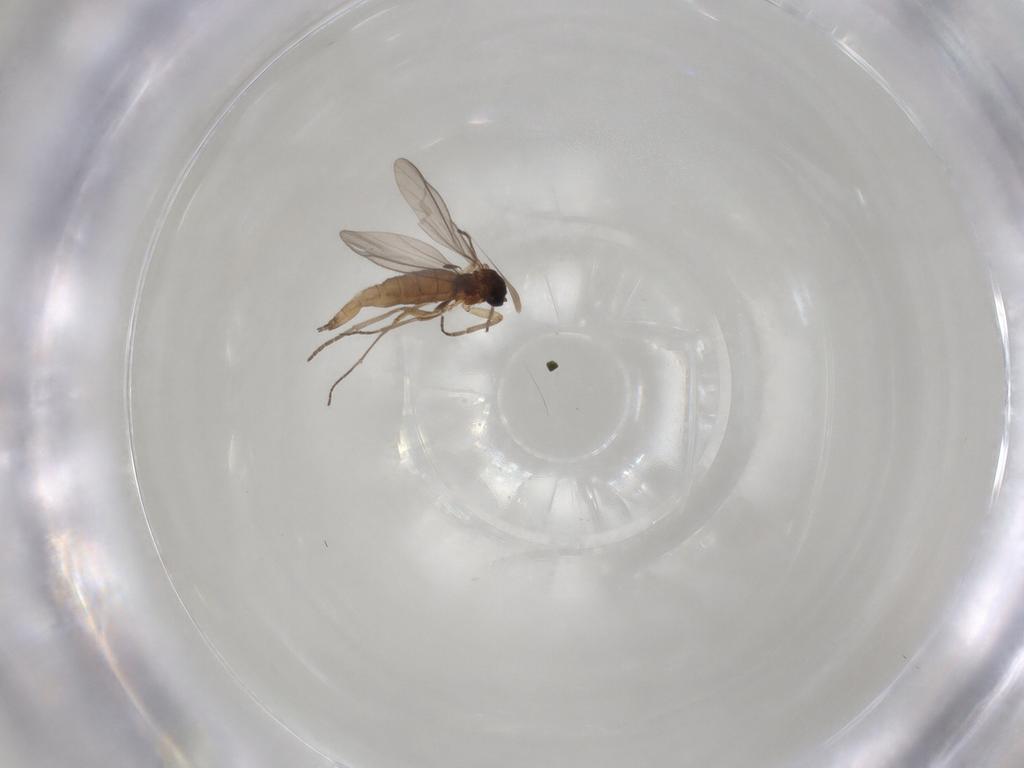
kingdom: Animalia
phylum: Arthropoda
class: Insecta
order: Diptera
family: Sciaridae
